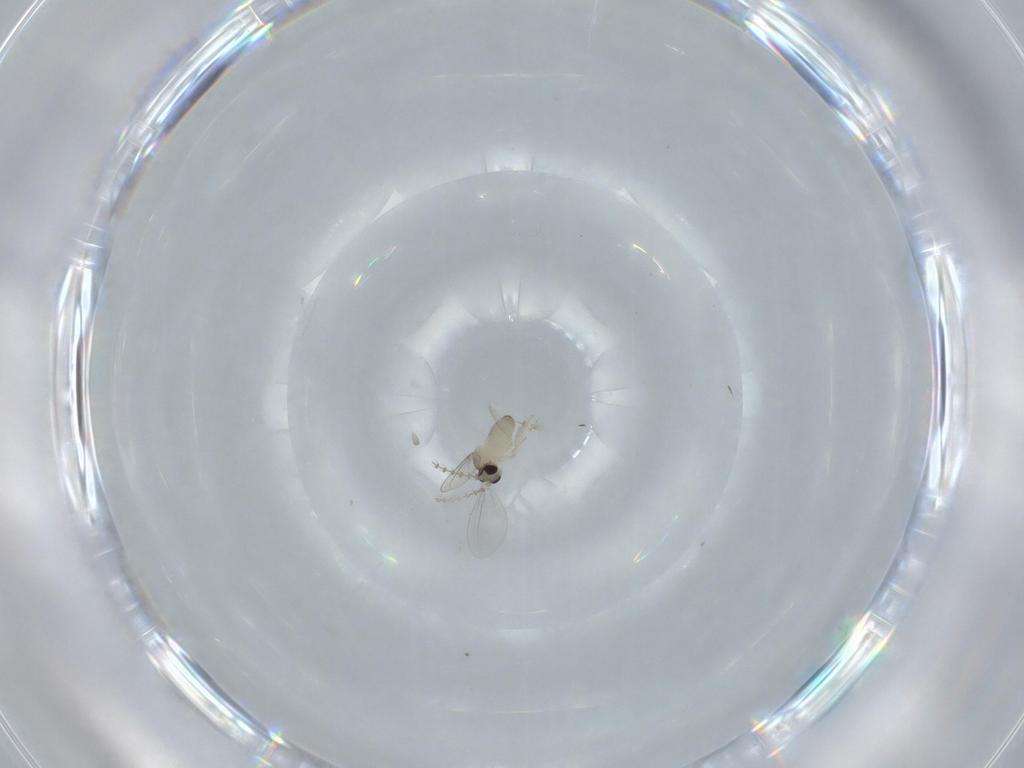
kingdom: Animalia
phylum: Arthropoda
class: Insecta
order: Diptera
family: Cecidomyiidae
